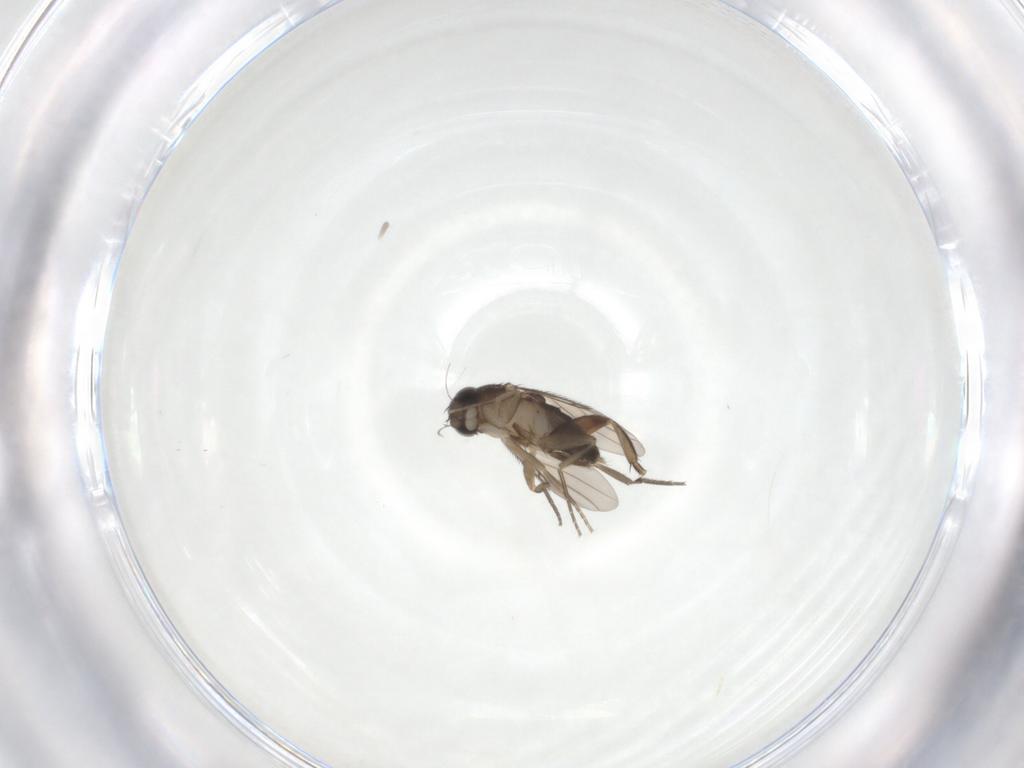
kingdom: Animalia
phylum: Arthropoda
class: Insecta
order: Diptera
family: Phoridae
